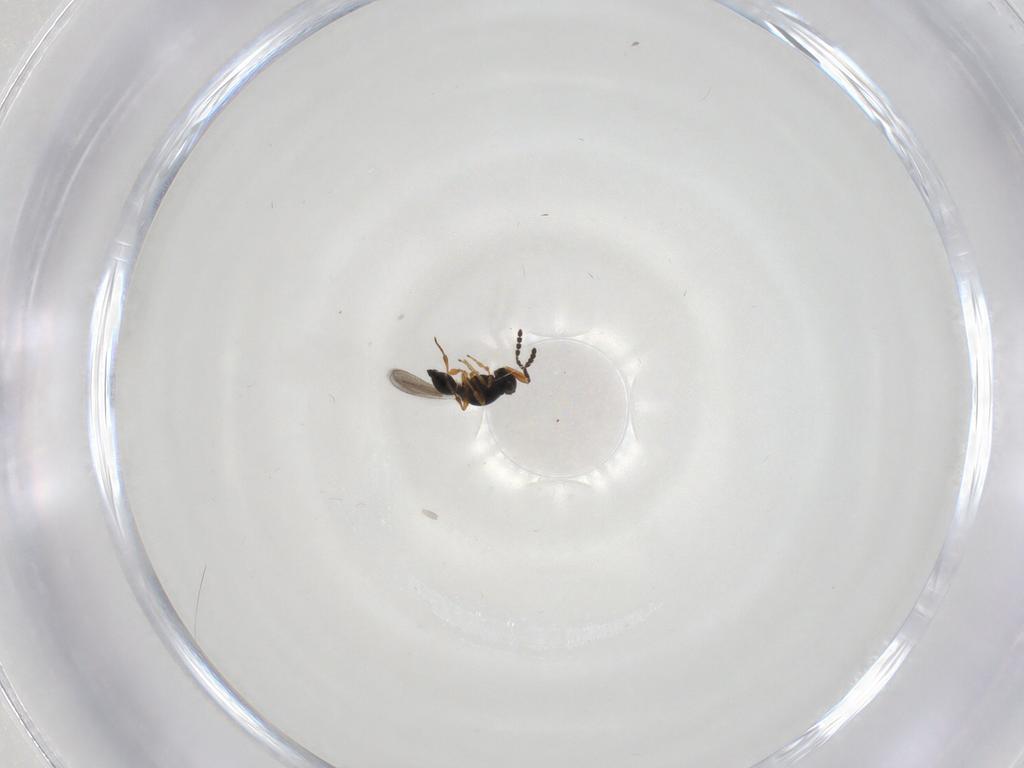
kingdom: Animalia
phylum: Arthropoda
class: Insecta
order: Hymenoptera
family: Platygastridae
